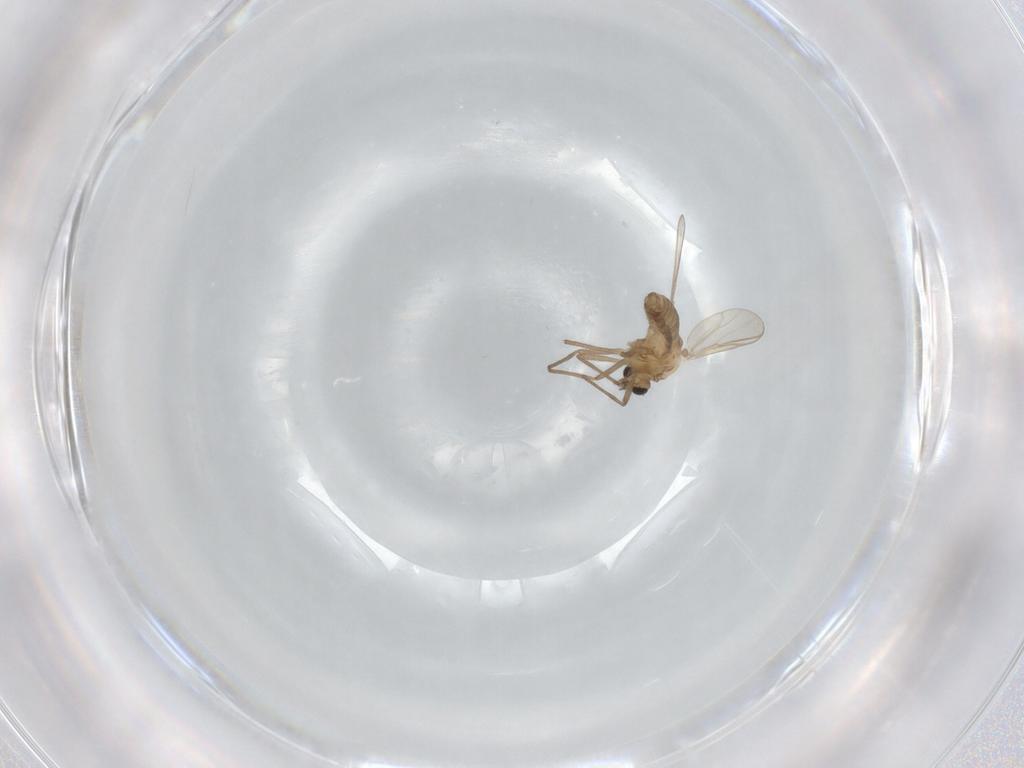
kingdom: Animalia
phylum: Arthropoda
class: Insecta
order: Diptera
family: Chironomidae
